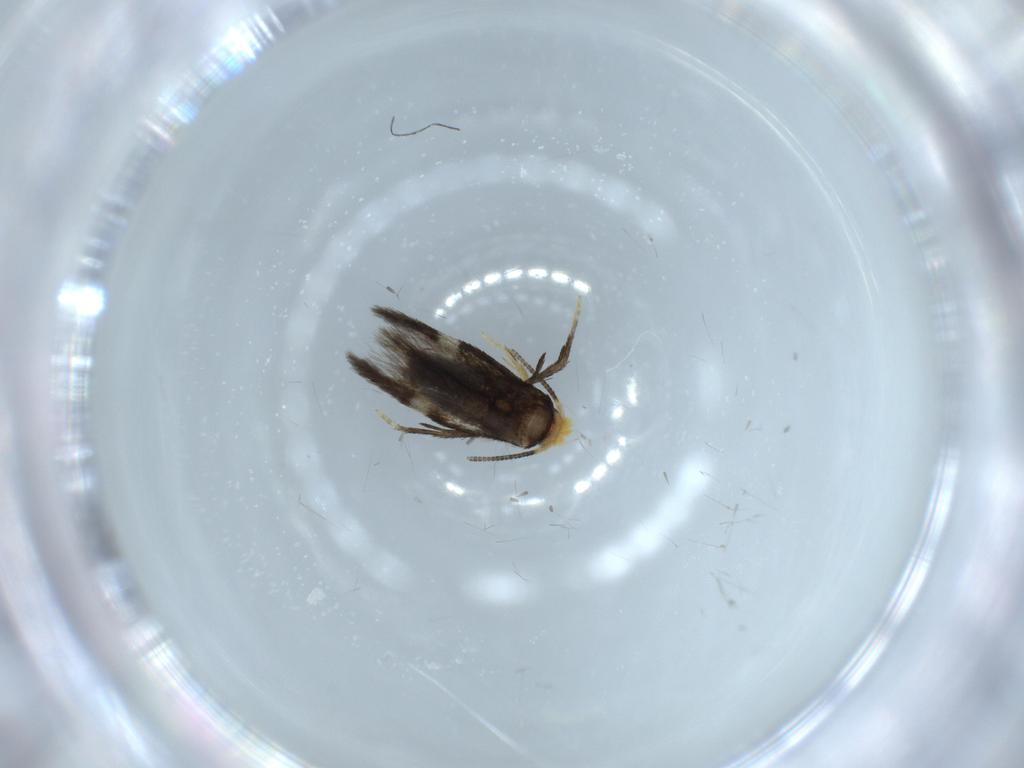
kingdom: Animalia
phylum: Arthropoda
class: Insecta
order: Lepidoptera
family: Nepticulidae
